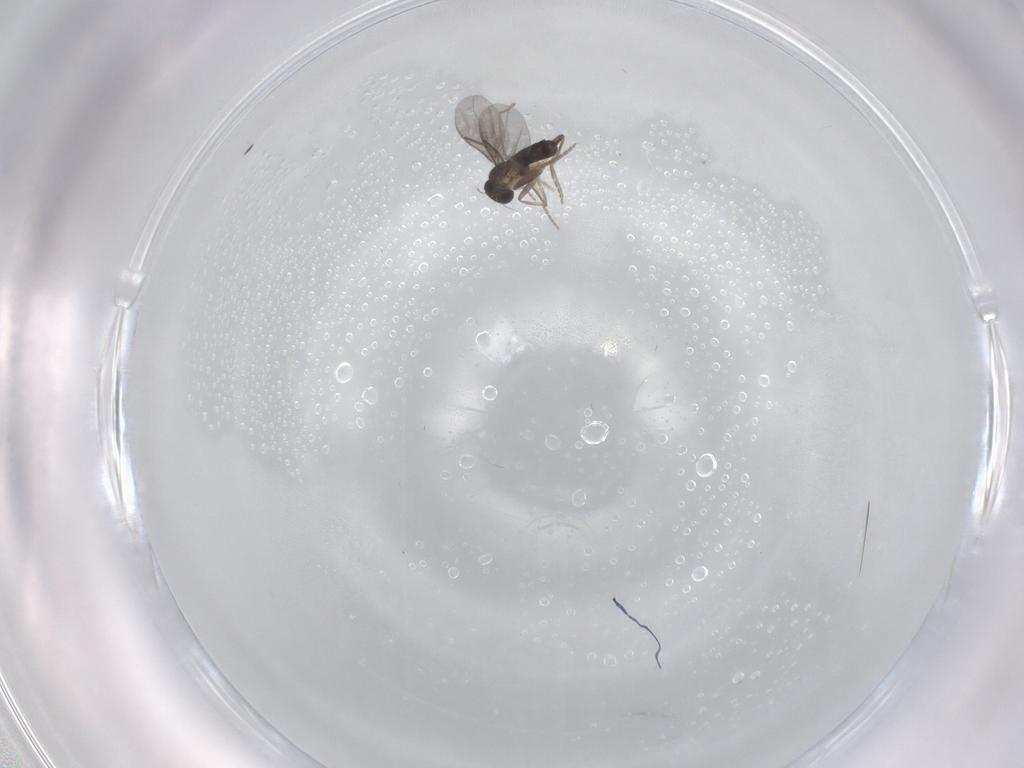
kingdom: Animalia
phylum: Arthropoda
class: Insecta
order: Diptera
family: Chironomidae
